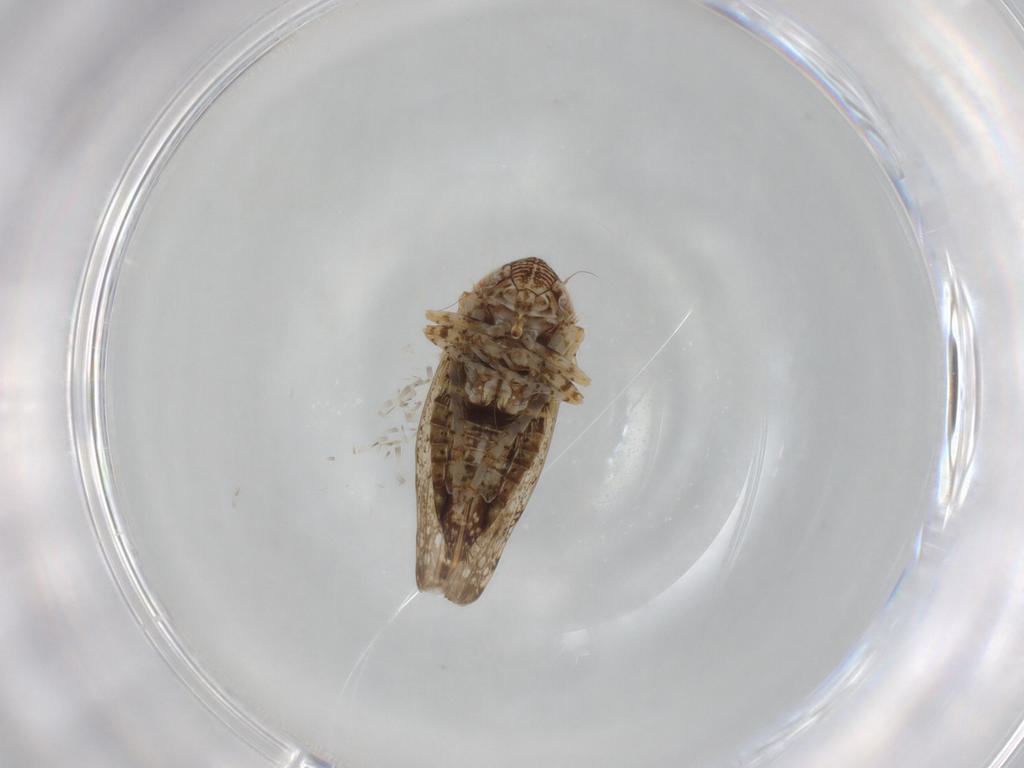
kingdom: Animalia
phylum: Arthropoda
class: Insecta
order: Hemiptera
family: Cicadellidae
